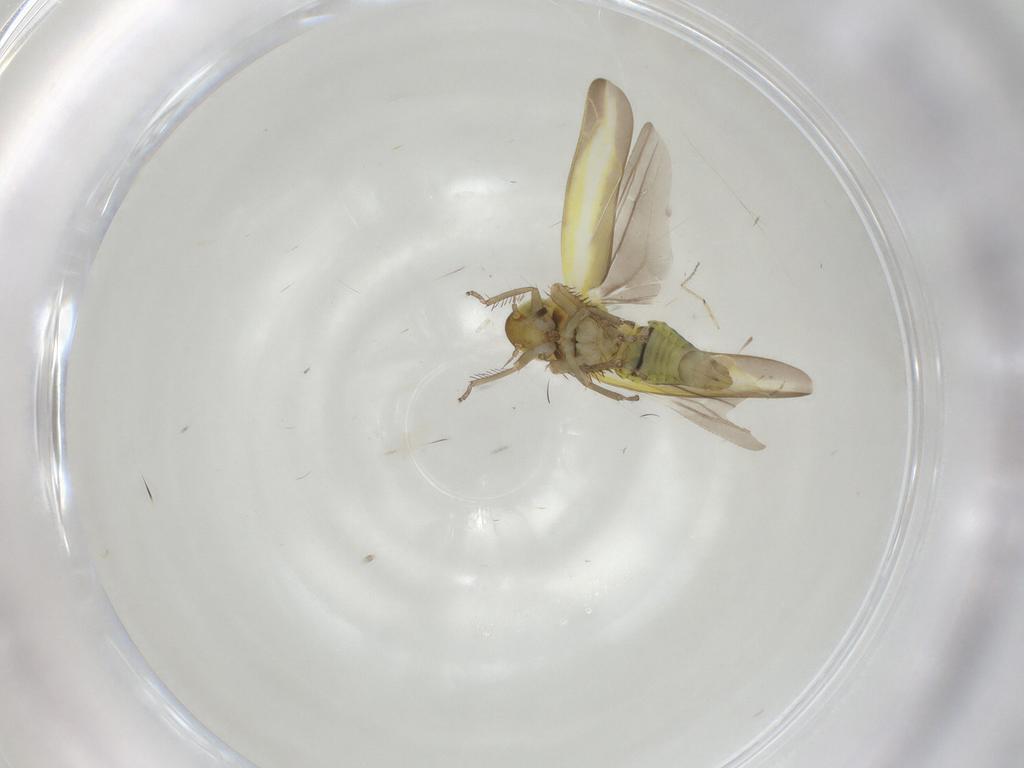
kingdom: Animalia
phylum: Arthropoda
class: Insecta
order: Hemiptera
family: Cicadellidae
